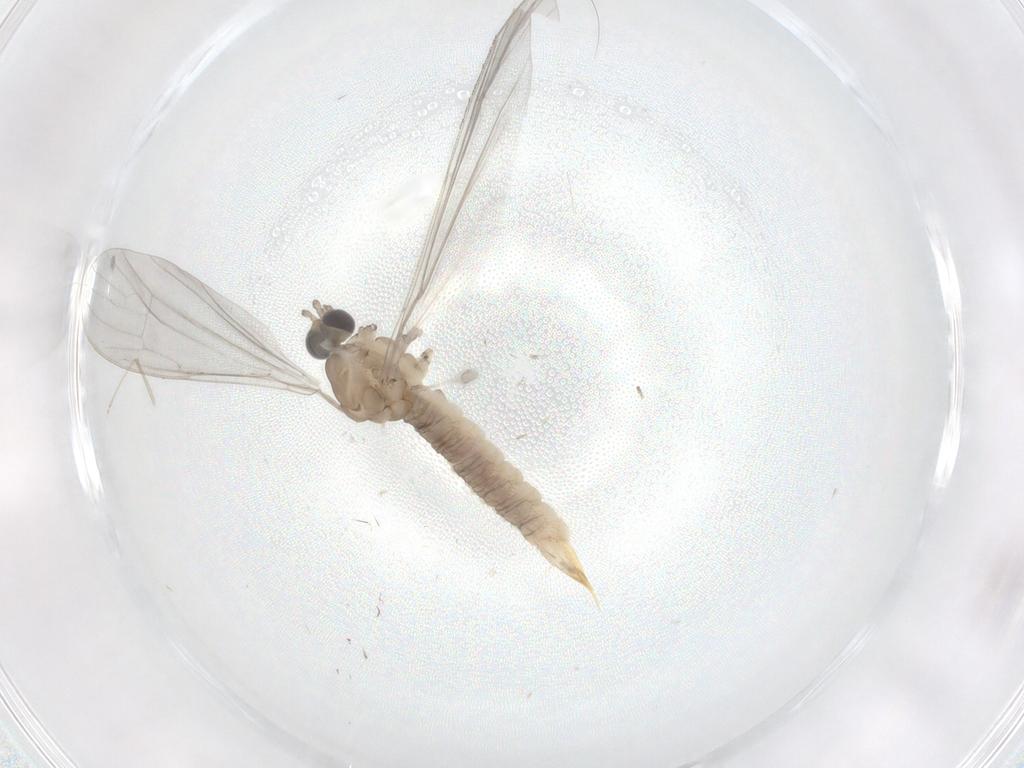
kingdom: Animalia
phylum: Arthropoda
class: Insecta
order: Diptera
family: Limoniidae
